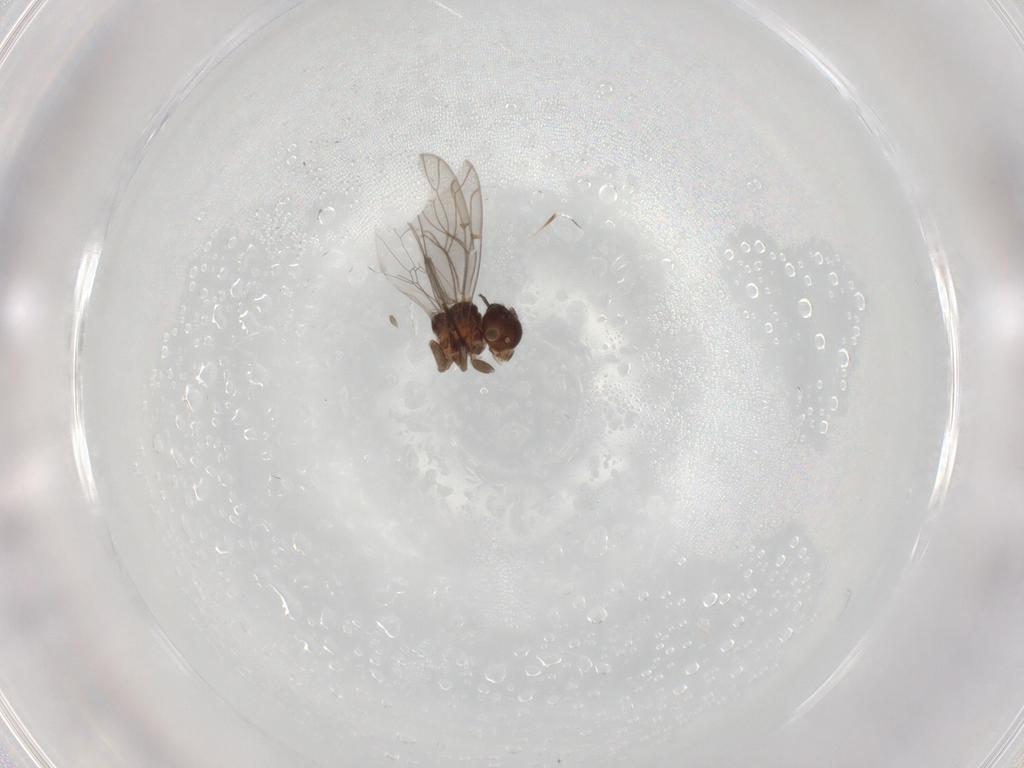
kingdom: Animalia
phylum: Arthropoda
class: Insecta
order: Psocodea
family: Ectopsocidae
